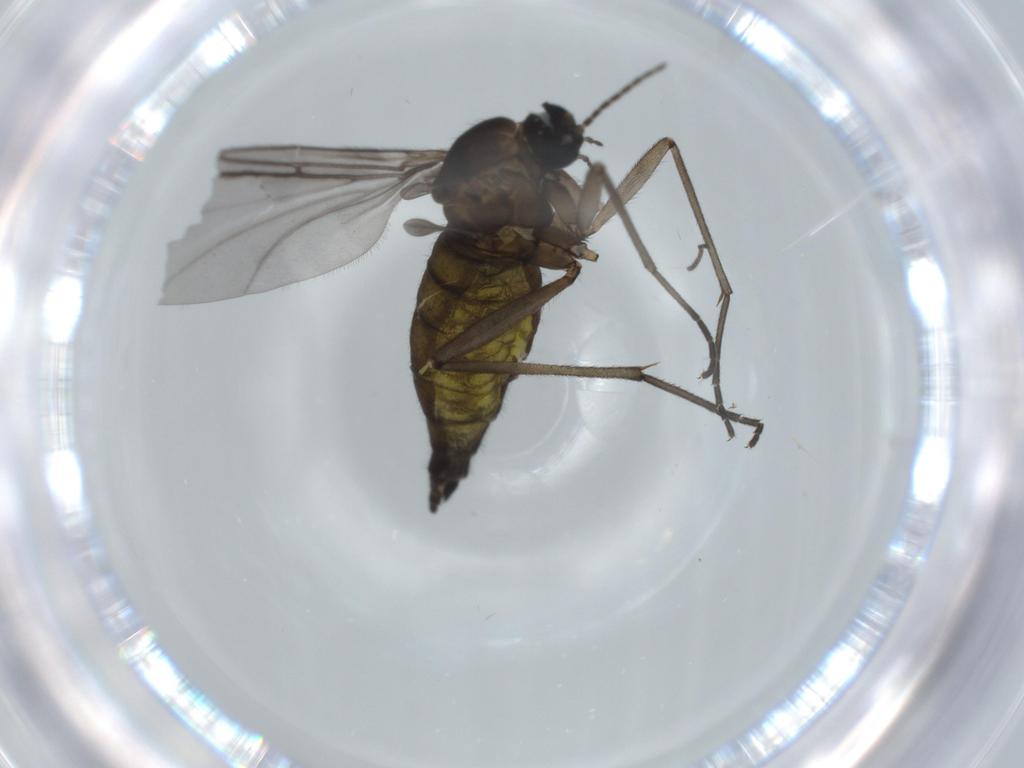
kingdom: Animalia
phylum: Arthropoda
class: Insecta
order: Diptera
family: Sciaridae
